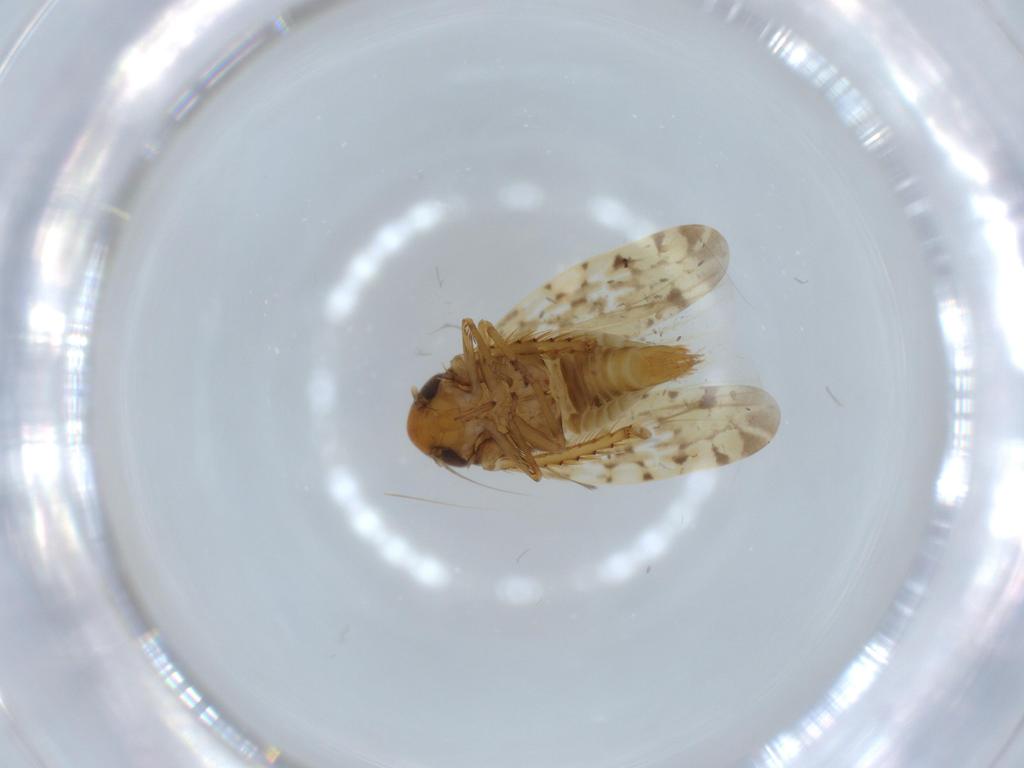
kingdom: Animalia
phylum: Arthropoda
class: Insecta
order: Hemiptera
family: Cicadellidae
